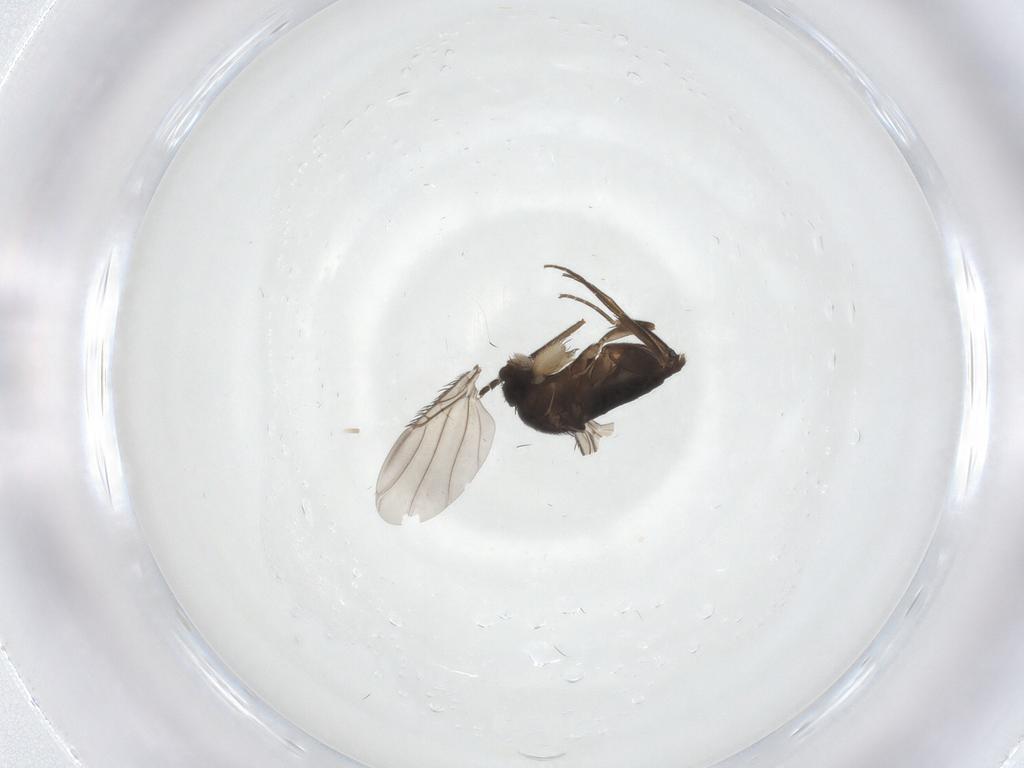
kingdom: Animalia
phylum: Arthropoda
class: Insecta
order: Diptera
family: Phoridae
